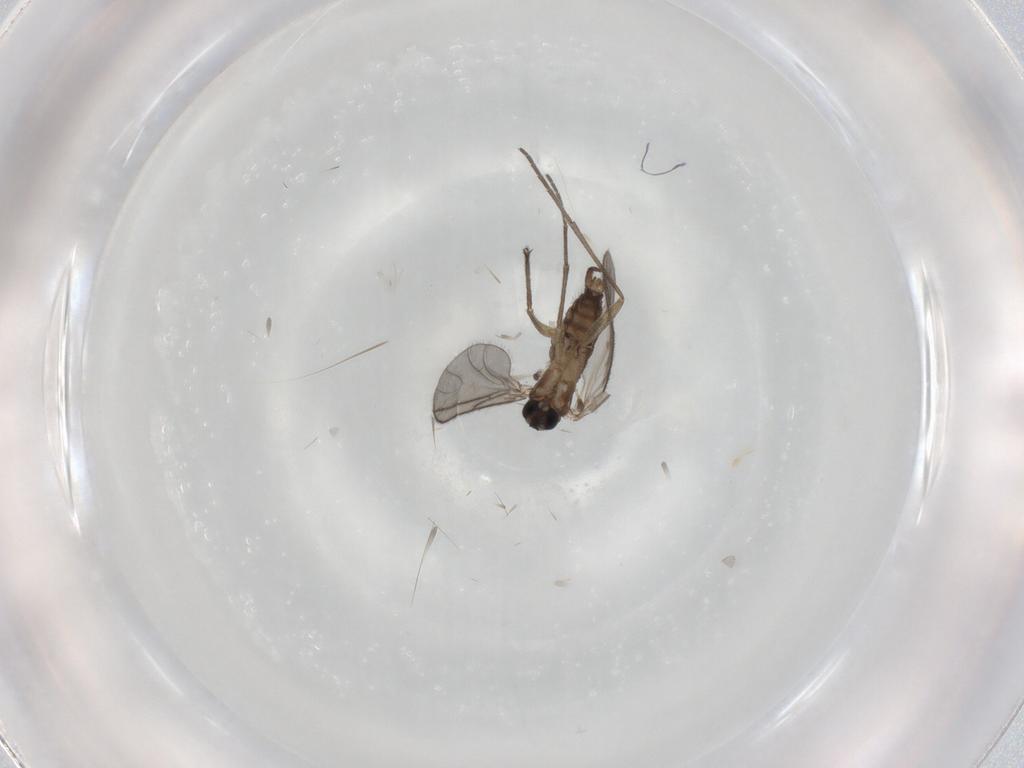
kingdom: Animalia
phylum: Arthropoda
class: Insecta
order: Diptera
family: Sciaridae
